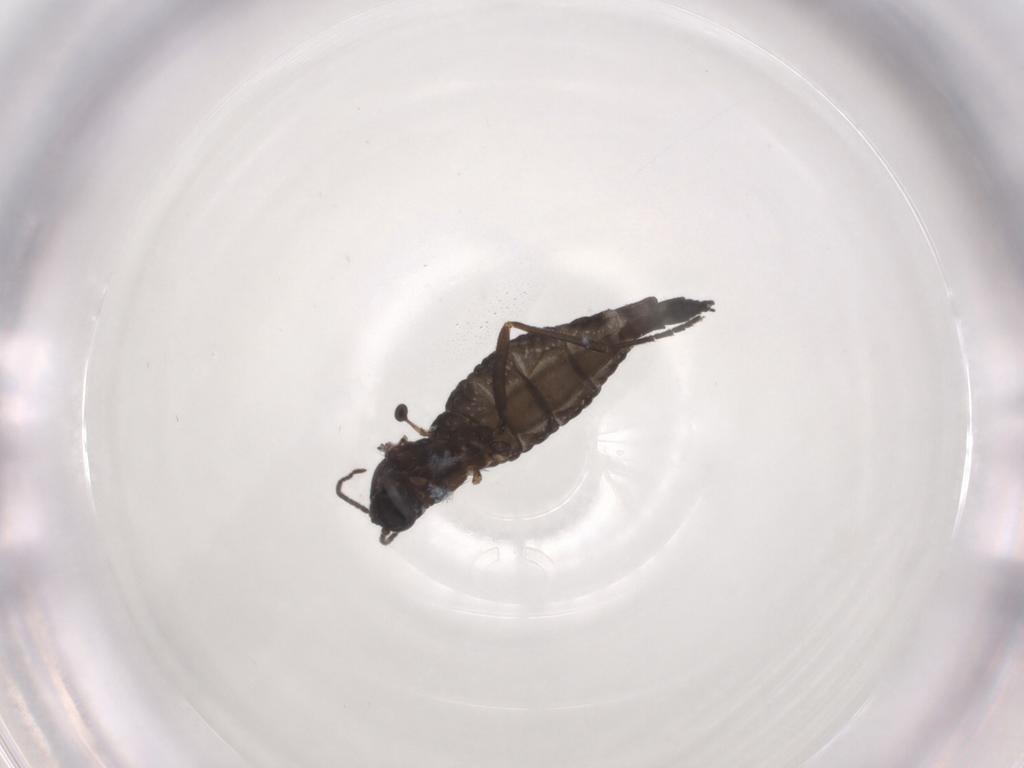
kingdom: Animalia
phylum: Arthropoda
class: Insecta
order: Diptera
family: Sciaridae
